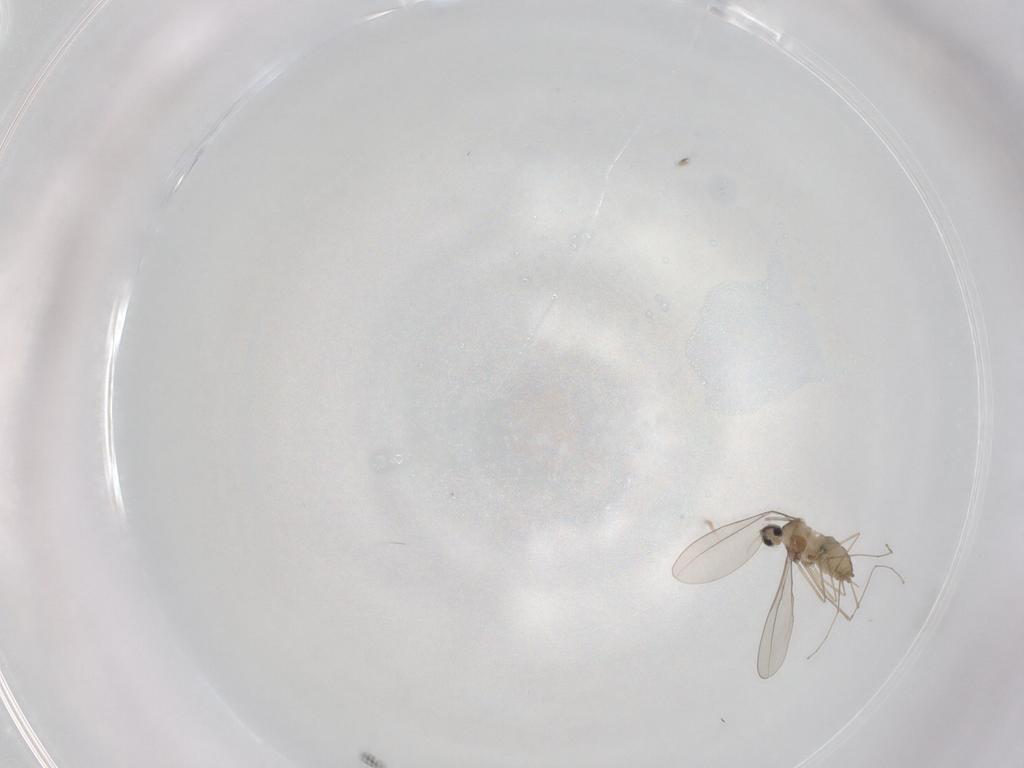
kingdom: Animalia
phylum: Arthropoda
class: Insecta
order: Diptera
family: Cecidomyiidae
